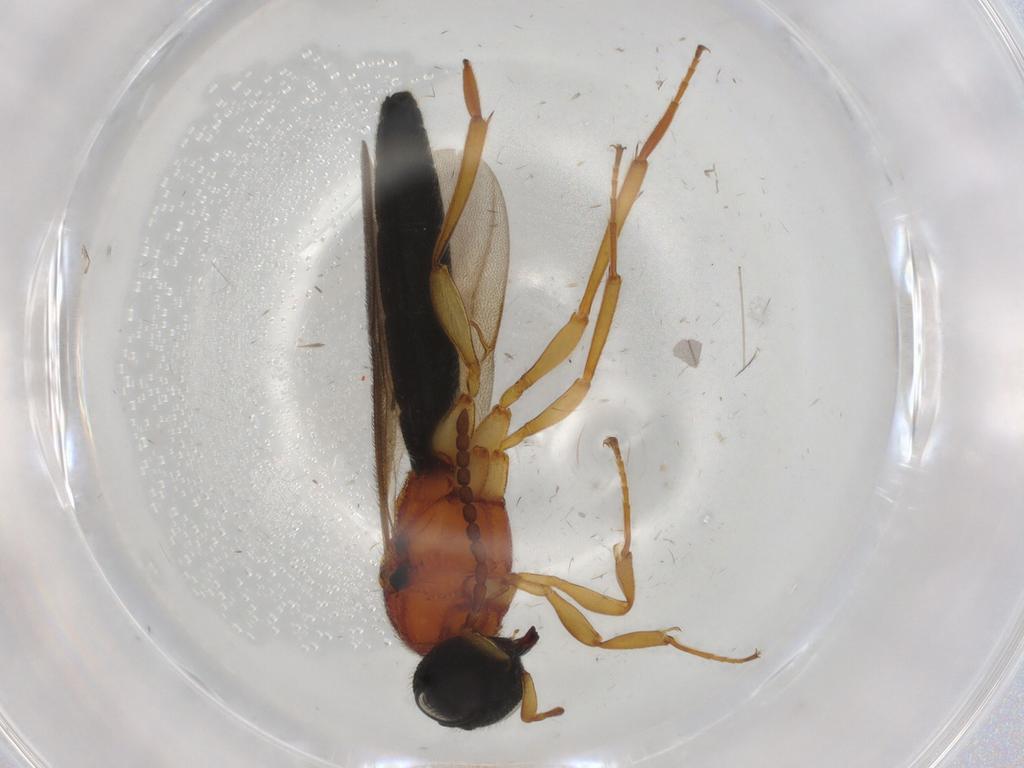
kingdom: Animalia
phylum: Arthropoda
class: Insecta
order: Hymenoptera
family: Scelionidae
